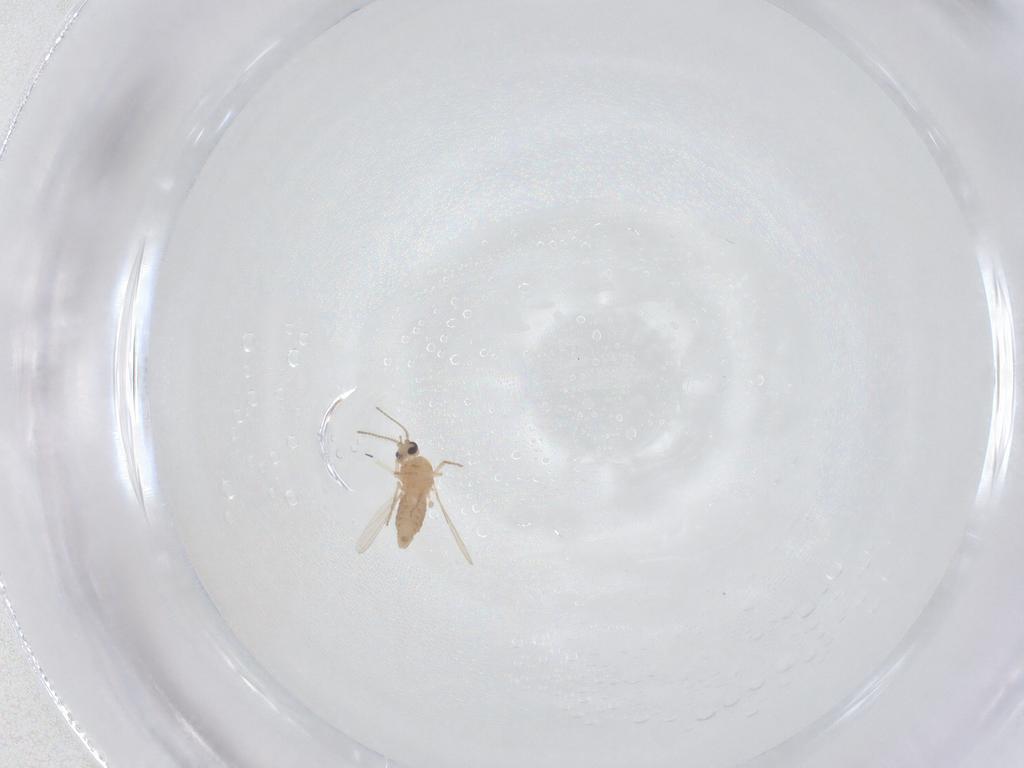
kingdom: Animalia
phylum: Arthropoda
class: Insecta
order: Diptera
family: Ceratopogonidae
